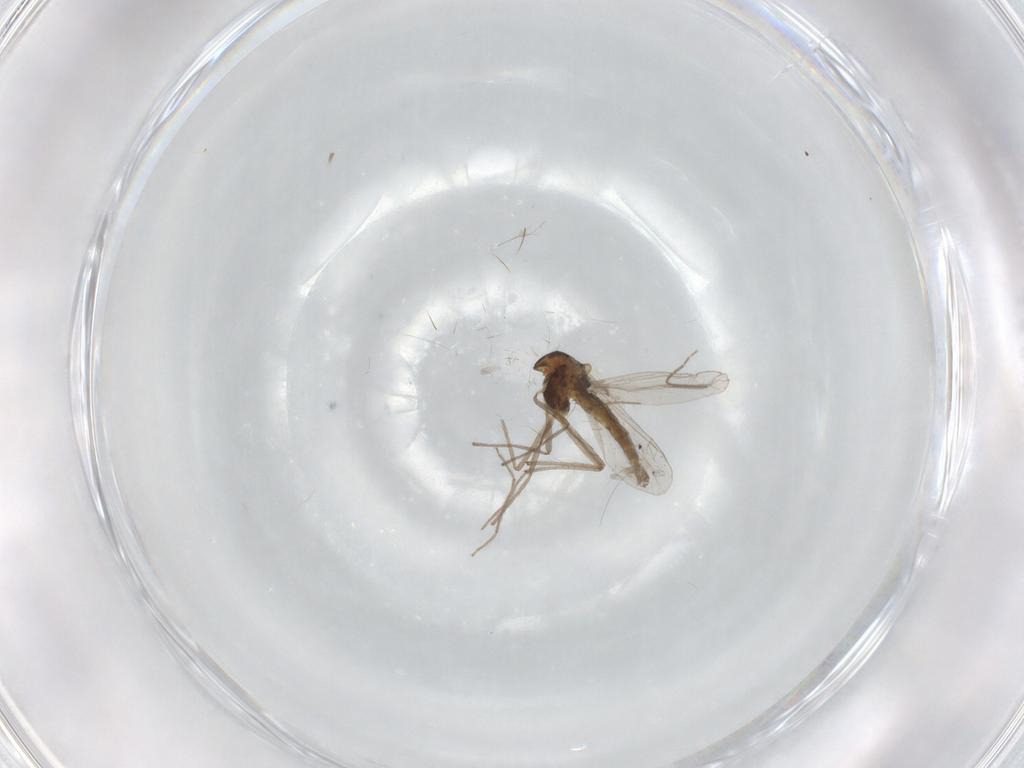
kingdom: Animalia
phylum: Arthropoda
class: Insecta
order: Diptera
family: Chironomidae
